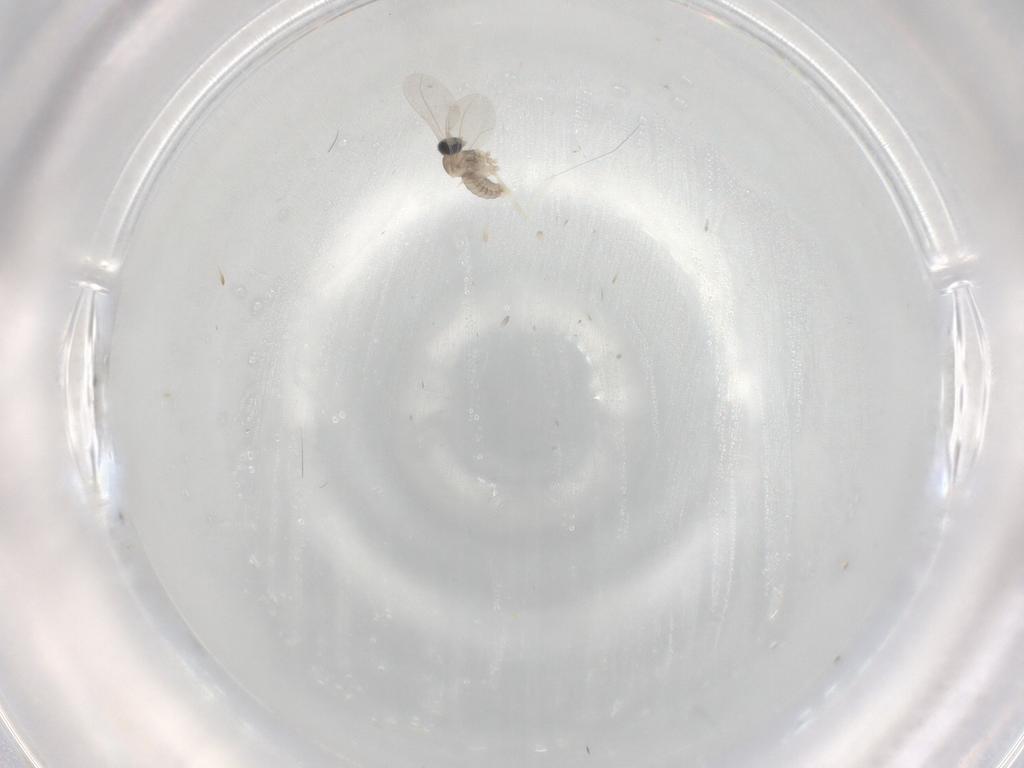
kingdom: Animalia
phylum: Arthropoda
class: Insecta
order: Diptera
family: Cecidomyiidae
